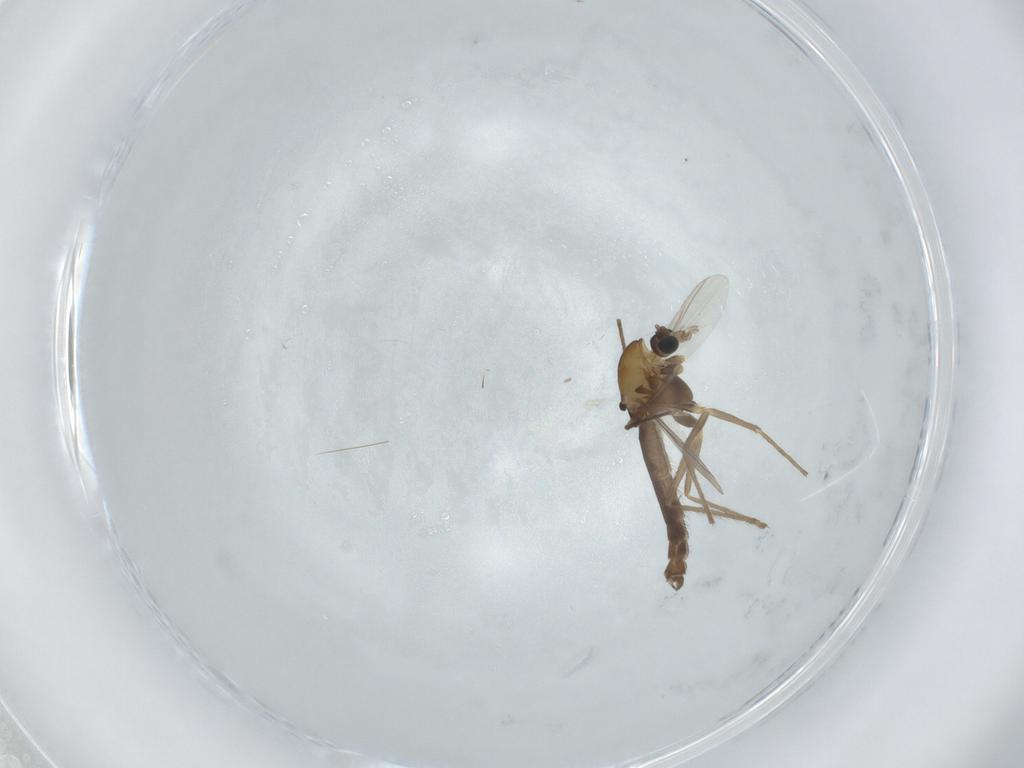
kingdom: Animalia
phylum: Arthropoda
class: Insecta
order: Diptera
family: Chironomidae
